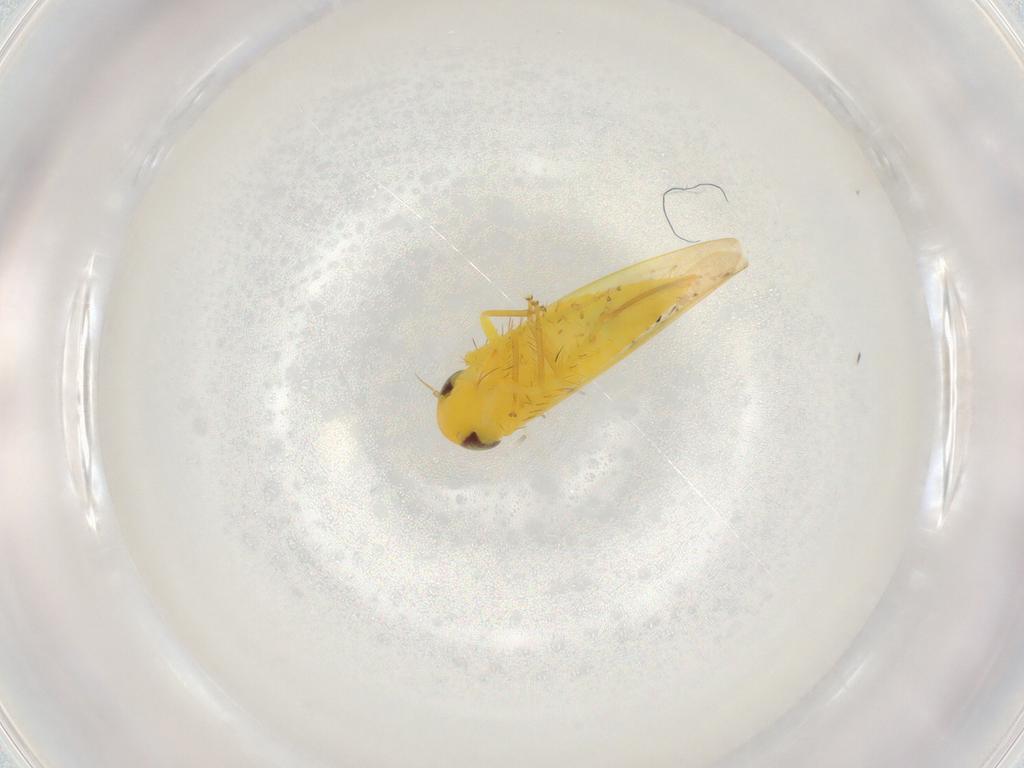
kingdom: Animalia
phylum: Arthropoda
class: Insecta
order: Hemiptera
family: Cicadellidae
